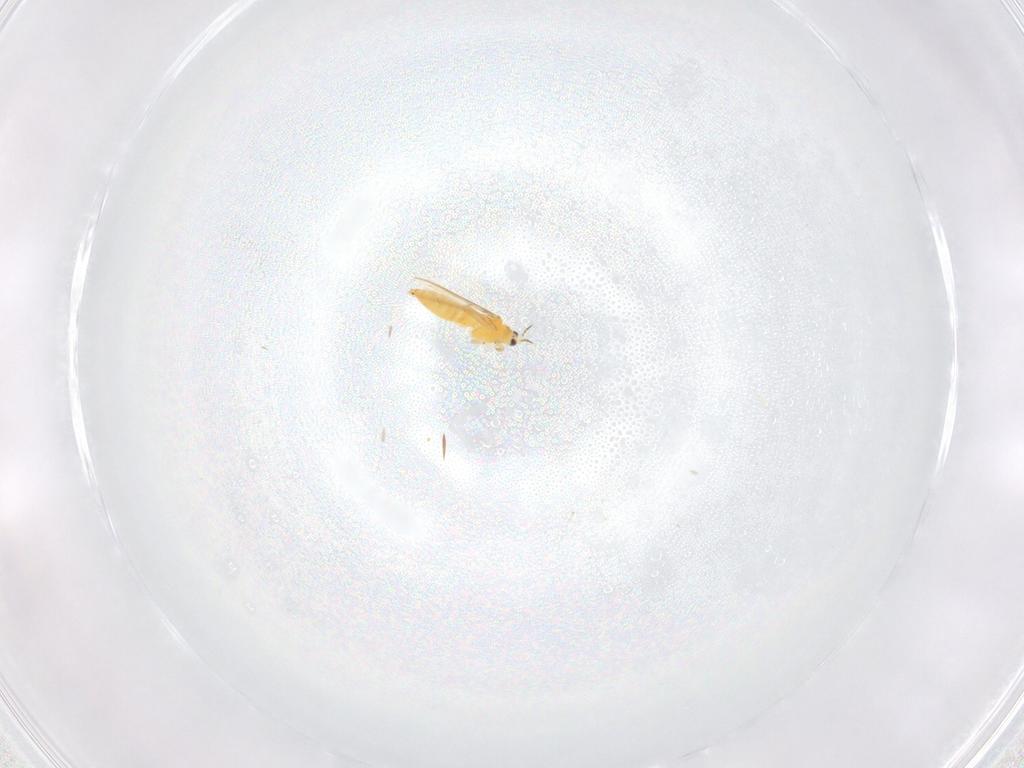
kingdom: Animalia
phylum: Arthropoda
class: Insecta
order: Thysanoptera
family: Thripidae
